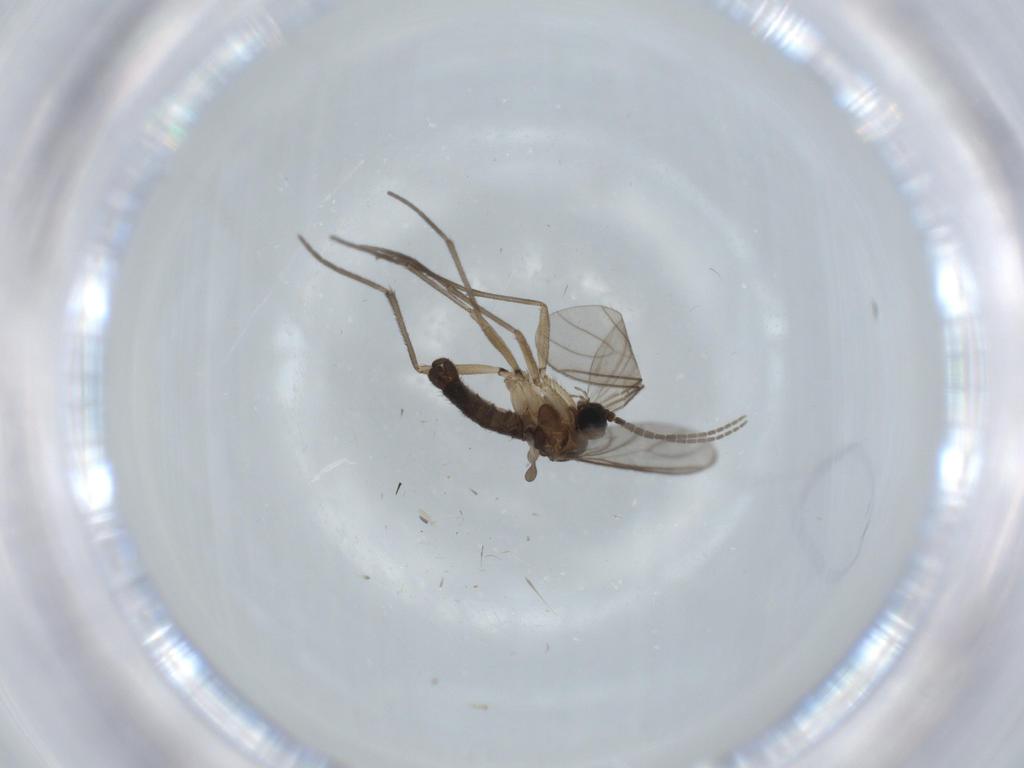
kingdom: Animalia
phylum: Arthropoda
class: Insecta
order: Diptera
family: Sciaridae
